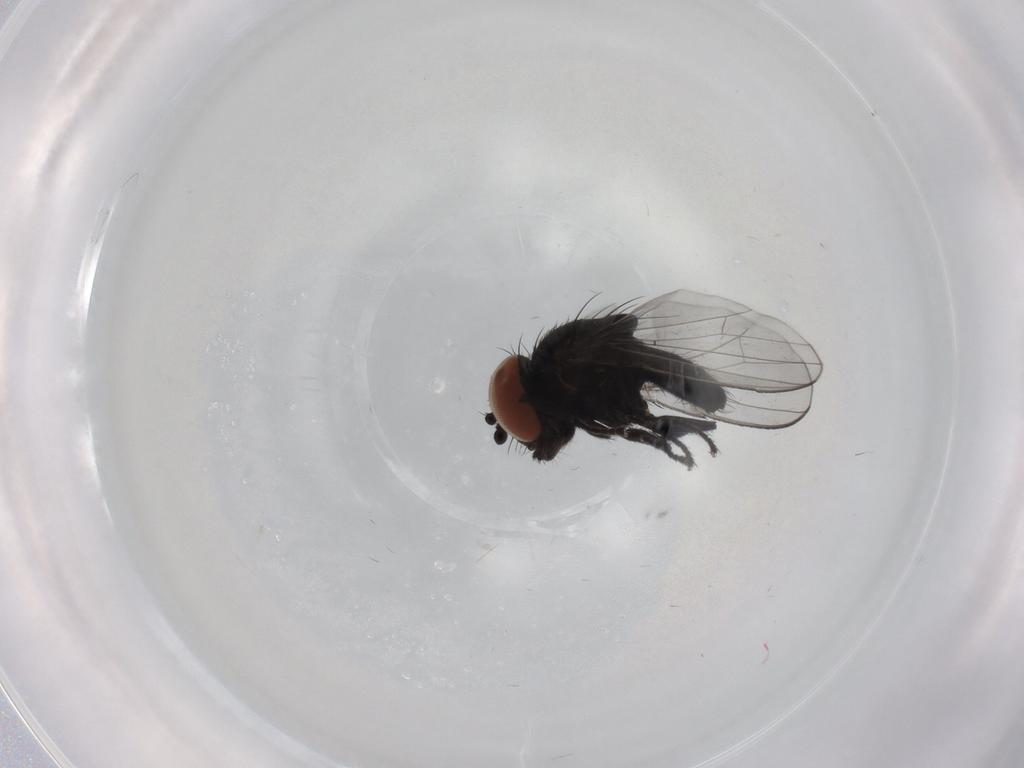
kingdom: Animalia
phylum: Arthropoda
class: Insecta
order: Diptera
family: Milichiidae
